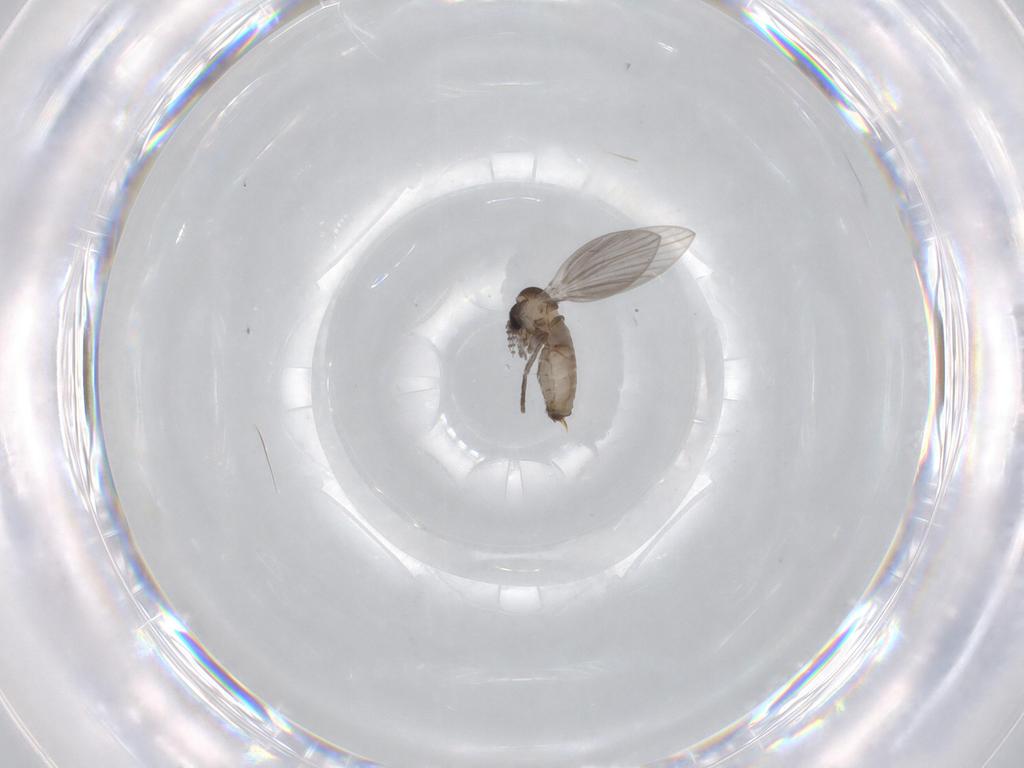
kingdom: Animalia
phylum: Arthropoda
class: Insecta
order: Diptera
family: Psychodidae
